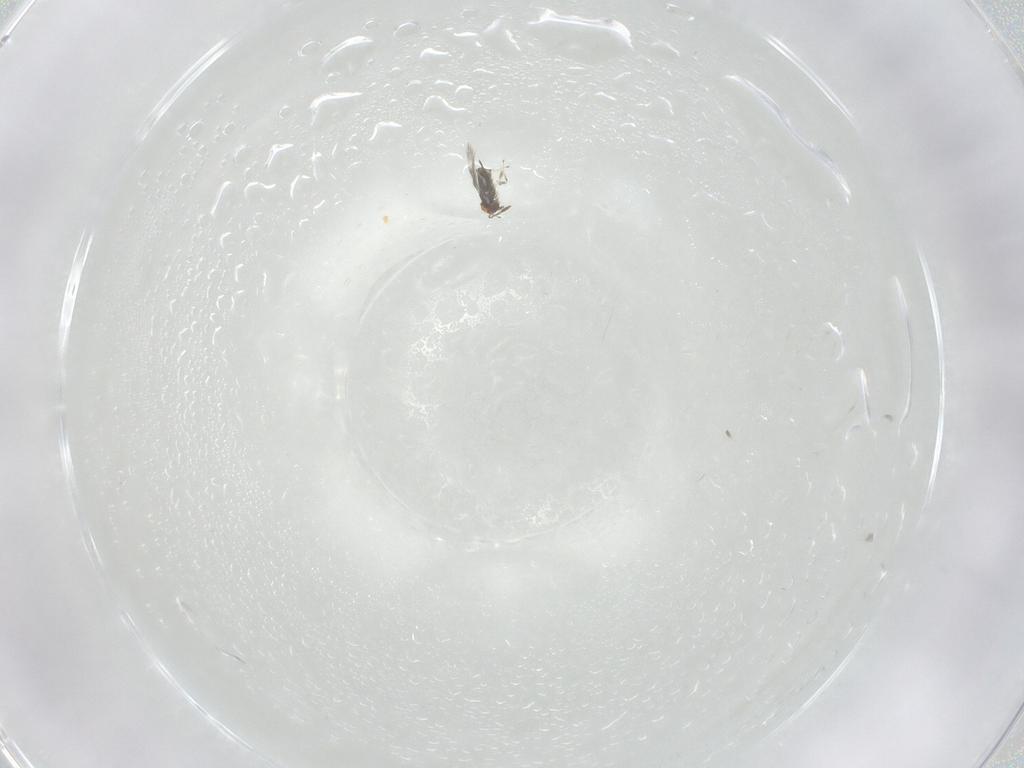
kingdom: Animalia
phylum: Arthropoda
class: Insecta
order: Hymenoptera
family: Azotidae
